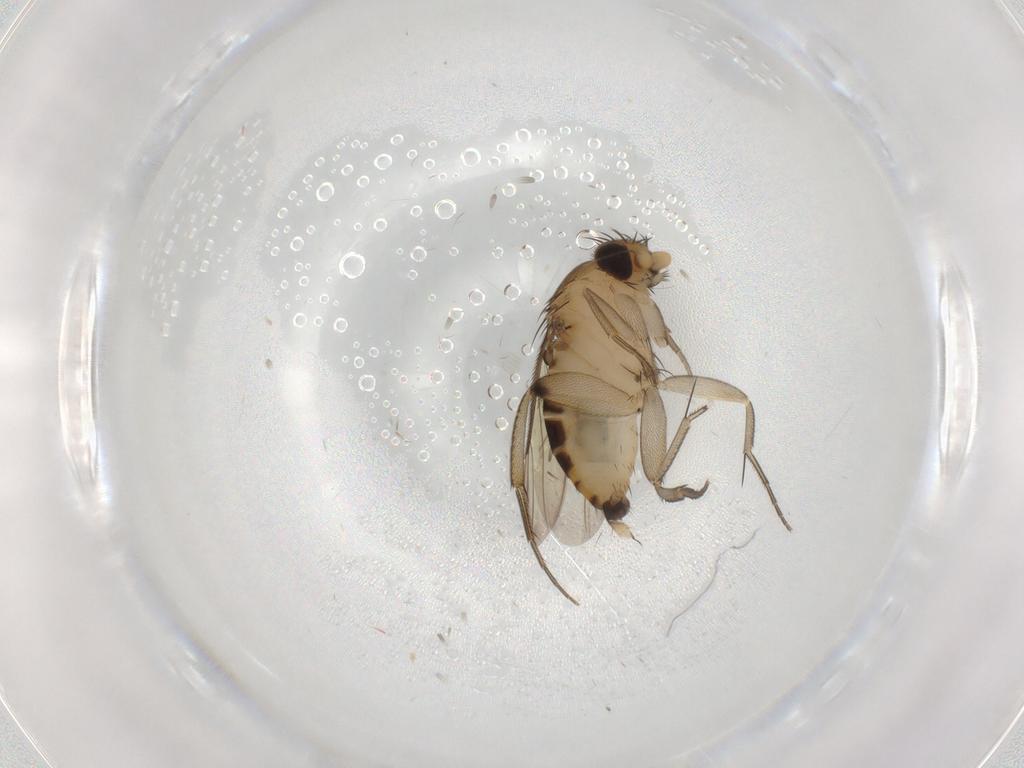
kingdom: Animalia
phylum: Arthropoda
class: Insecta
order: Diptera
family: Phoridae
